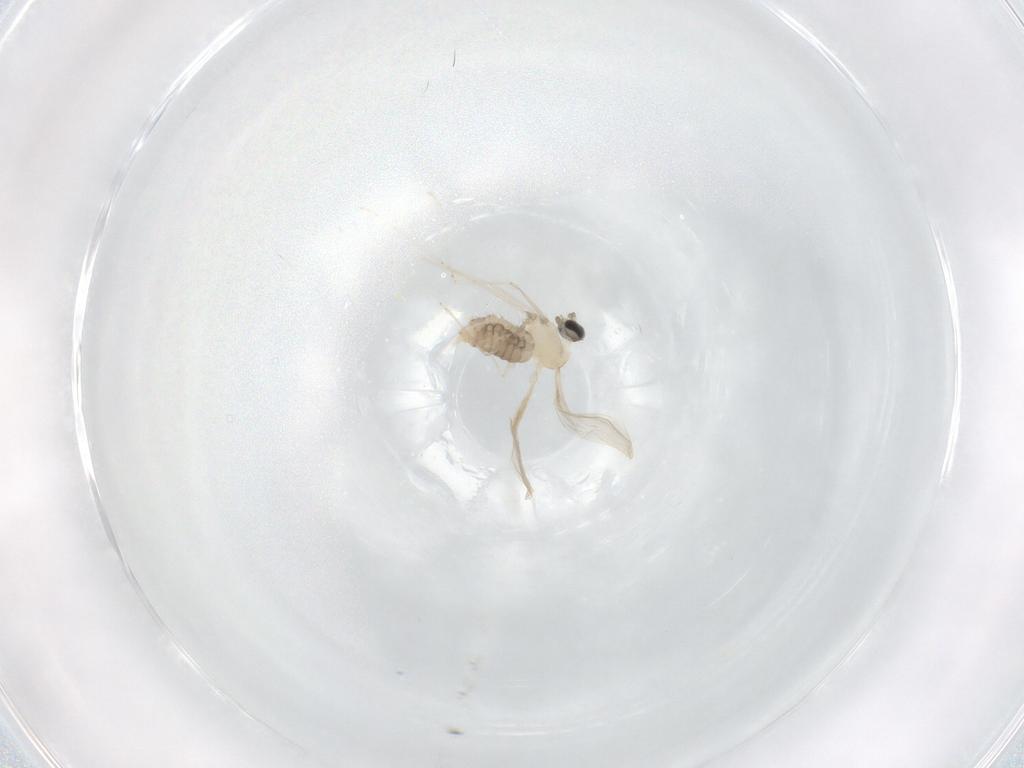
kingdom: Animalia
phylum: Arthropoda
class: Insecta
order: Diptera
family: Cecidomyiidae
